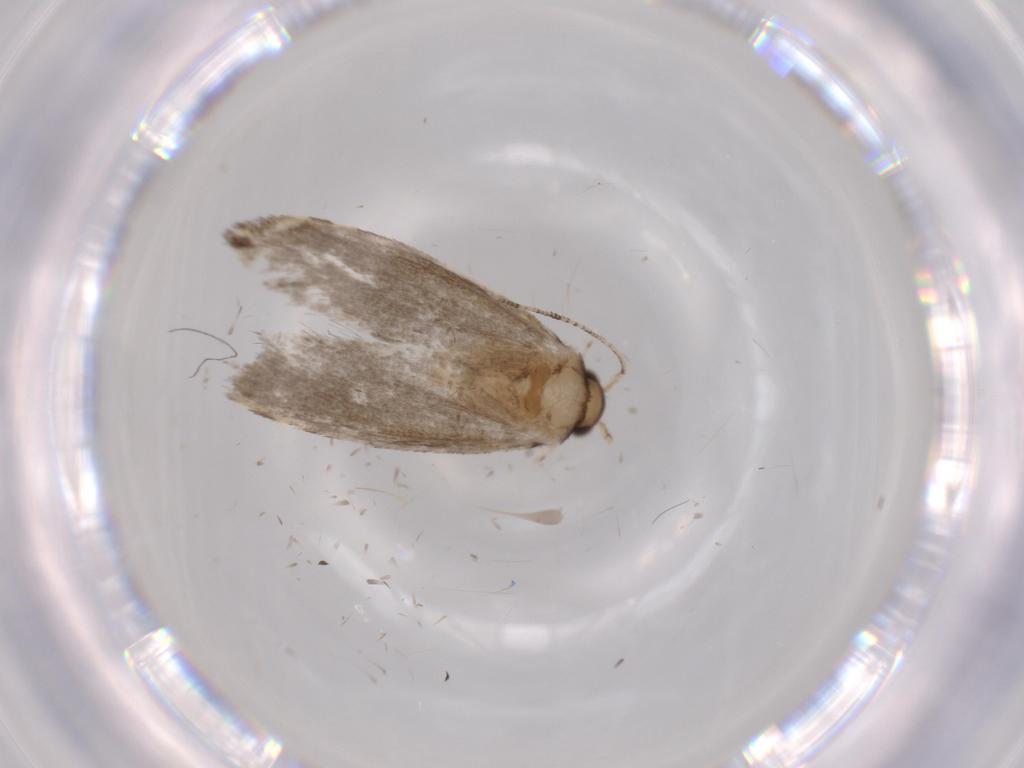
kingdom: Animalia
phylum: Arthropoda
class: Insecta
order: Lepidoptera
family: Tineidae
